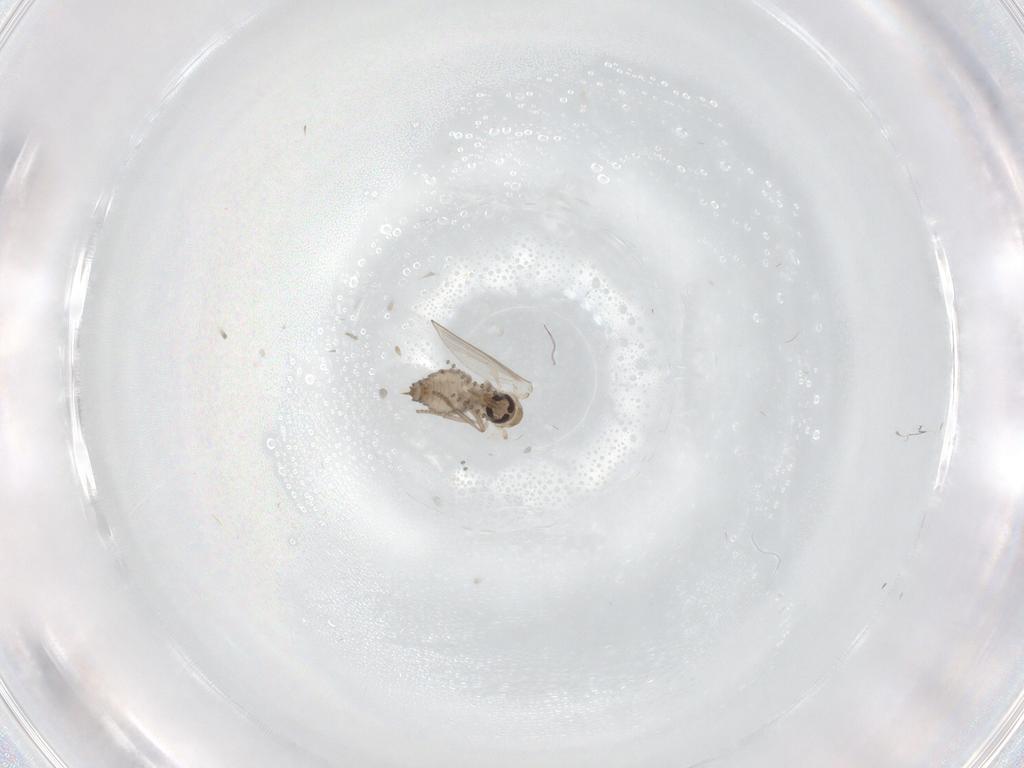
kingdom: Animalia
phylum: Arthropoda
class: Insecta
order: Diptera
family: Psychodidae
